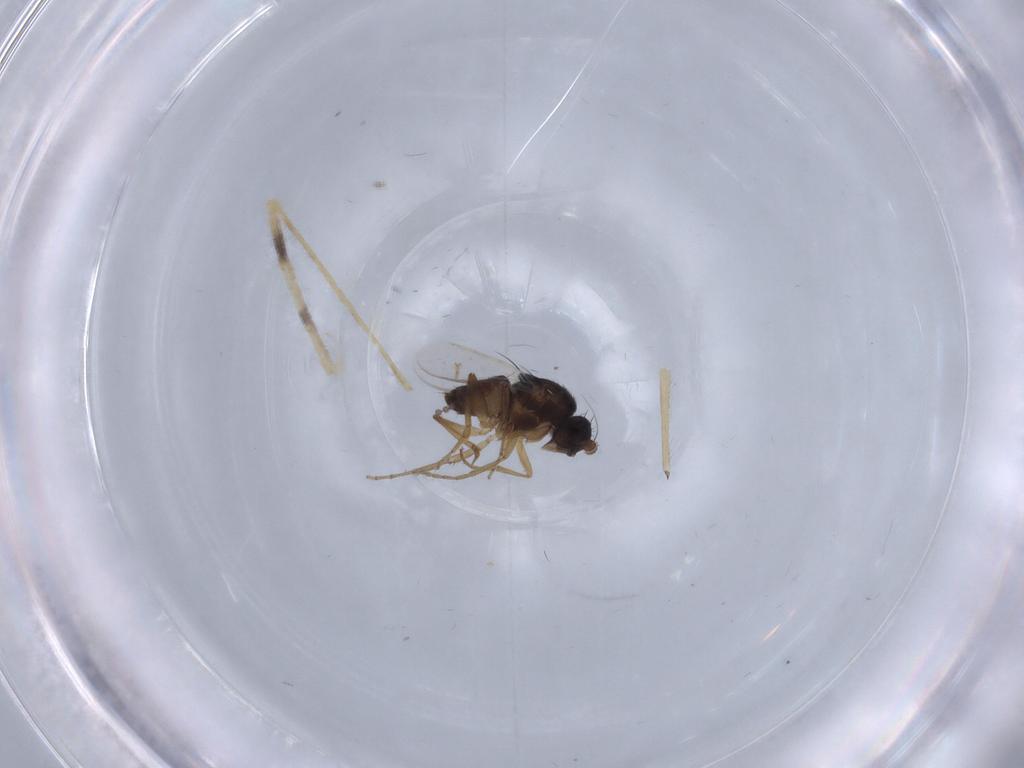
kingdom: Animalia
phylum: Arthropoda
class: Insecta
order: Diptera
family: Sphaeroceridae
